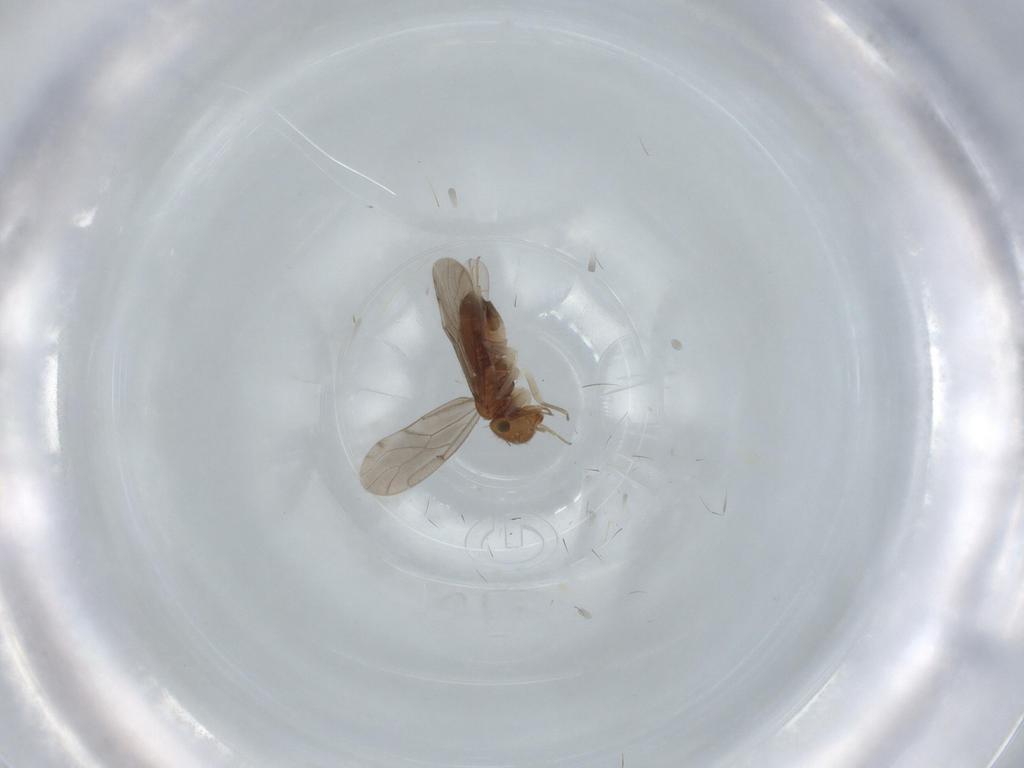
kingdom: Animalia
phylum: Arthropoda
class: Insecta
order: Psocodea
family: Ectopsocidae
